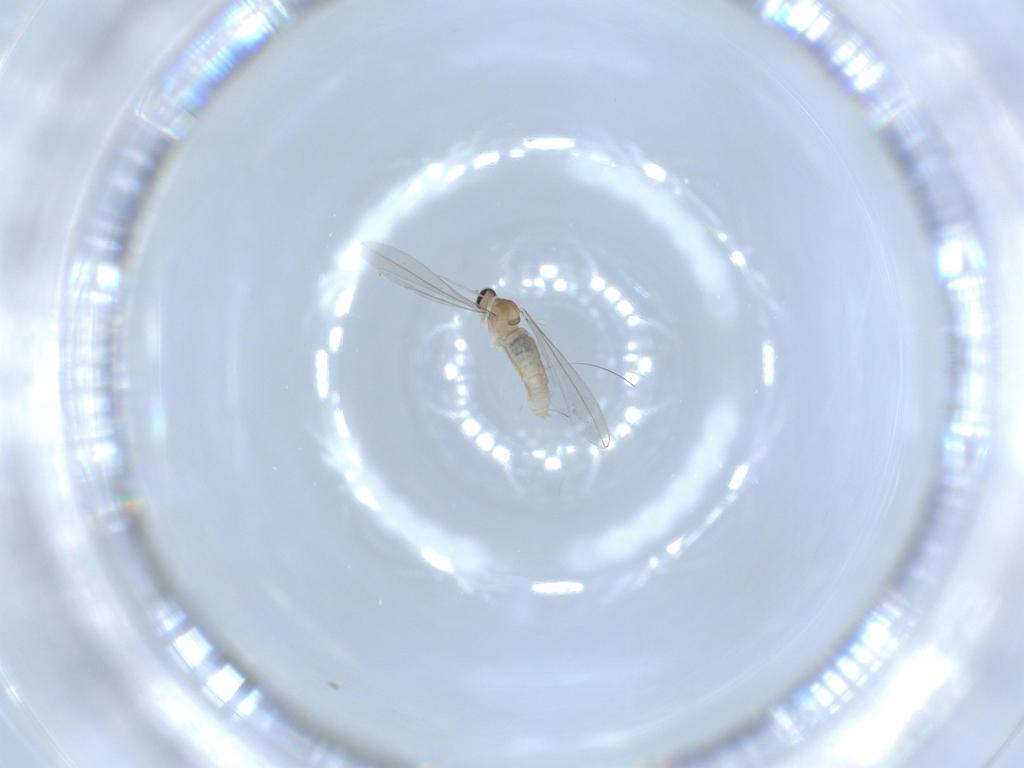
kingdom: Animalia
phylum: Arthropoda
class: Insecta
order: Diptera
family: Cecidomyiidae
